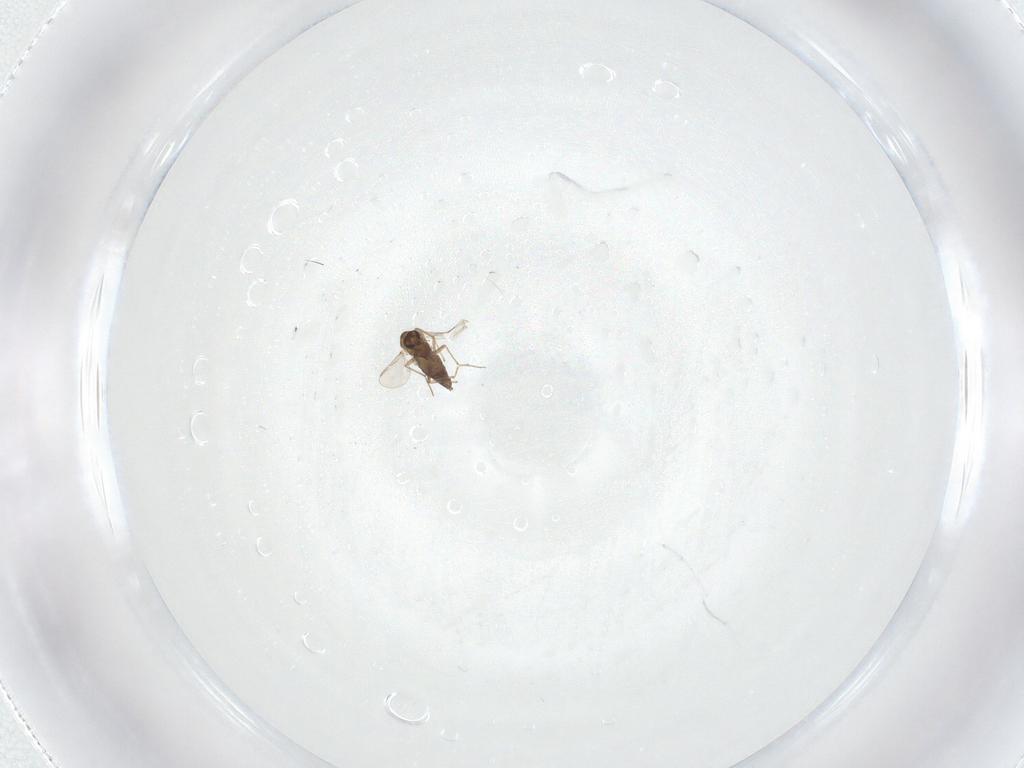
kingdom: Animalia
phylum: Arthropoda
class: Insecta
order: Diptera
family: Chironomidae
